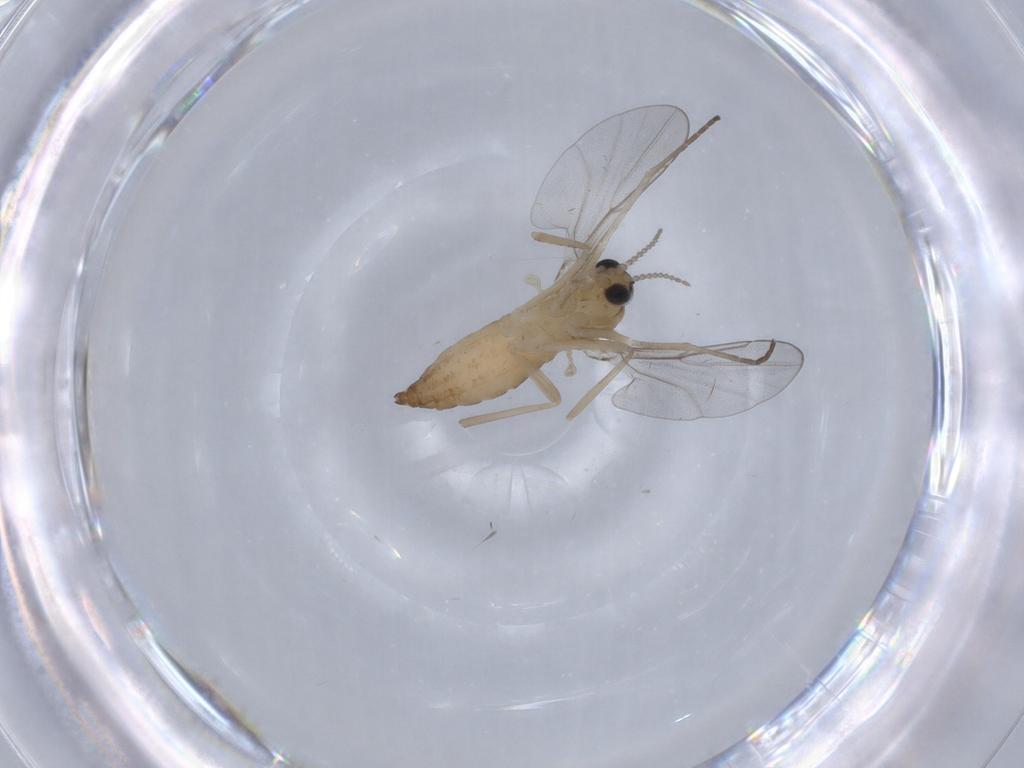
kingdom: Animalia
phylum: Arthropoda
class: Insecta
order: Diptera
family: Chironomidae
